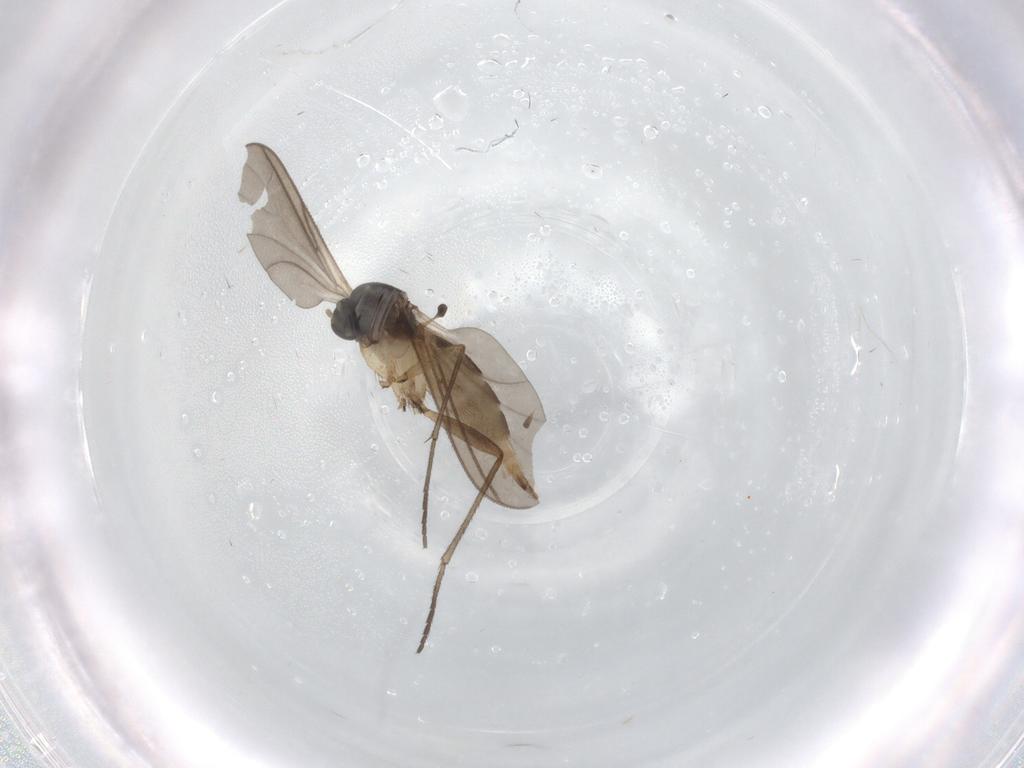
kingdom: Animalia
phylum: Arthropoda
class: Insecta
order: Diptera
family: Sciaridae
